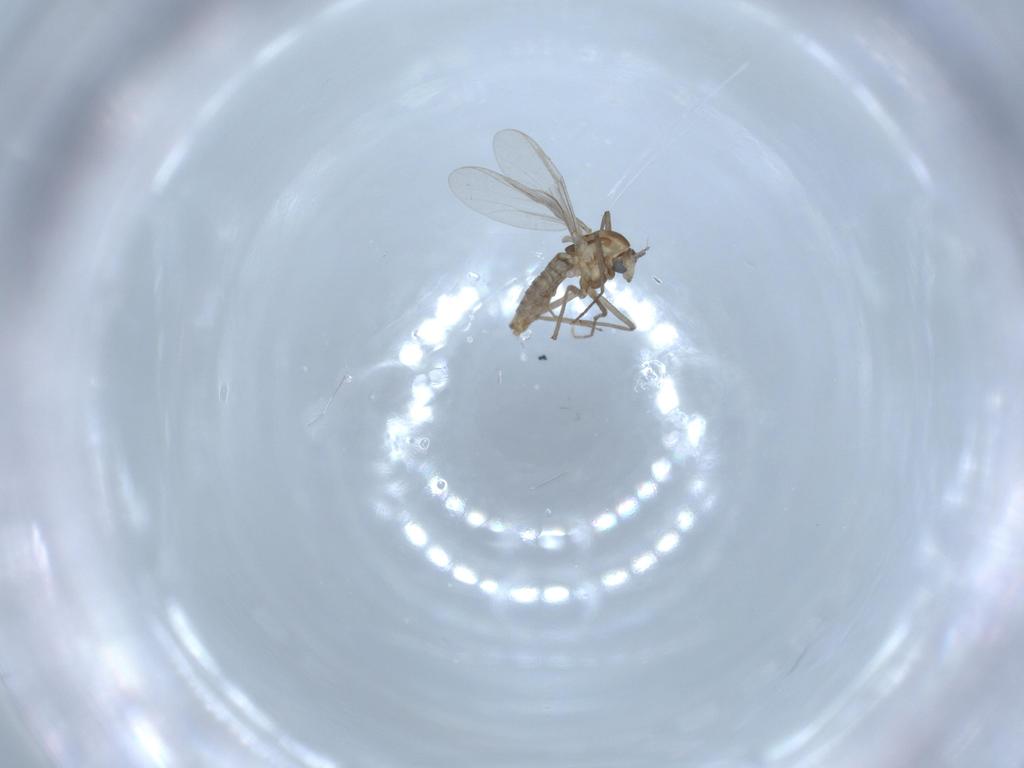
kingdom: Animalia
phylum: Arthropoda
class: Insecta
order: Diptera
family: Chironomidae
